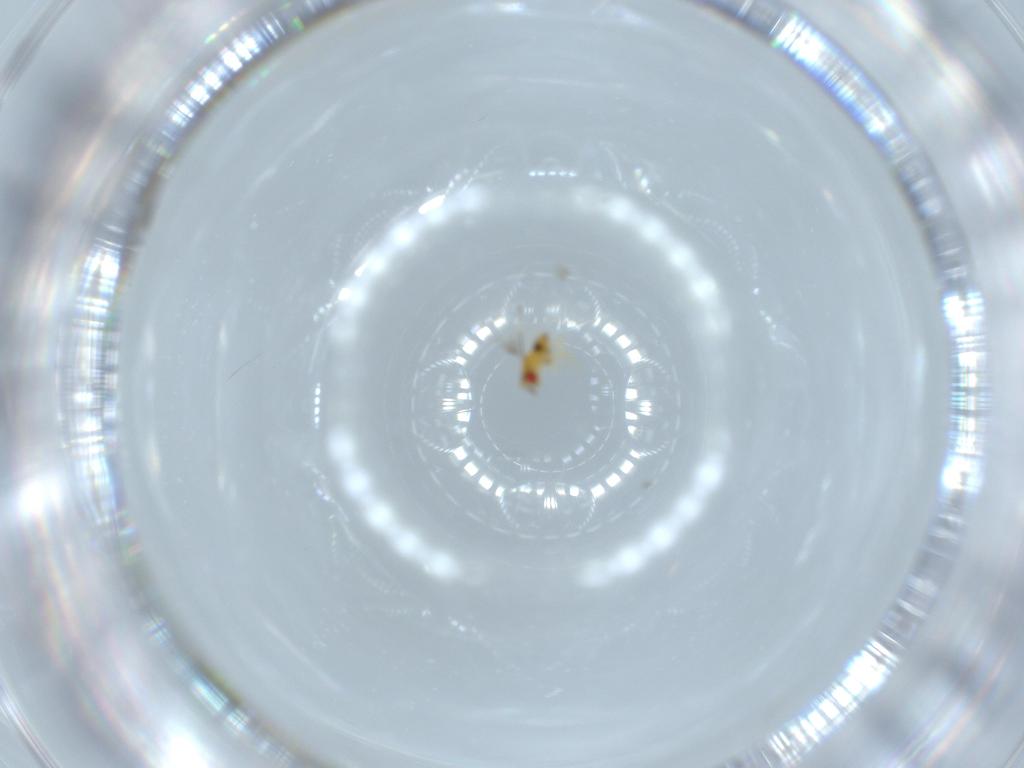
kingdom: Animalia
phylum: Arthropoda
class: Insecta
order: Hymenoptera
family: Trichogrammatidae
